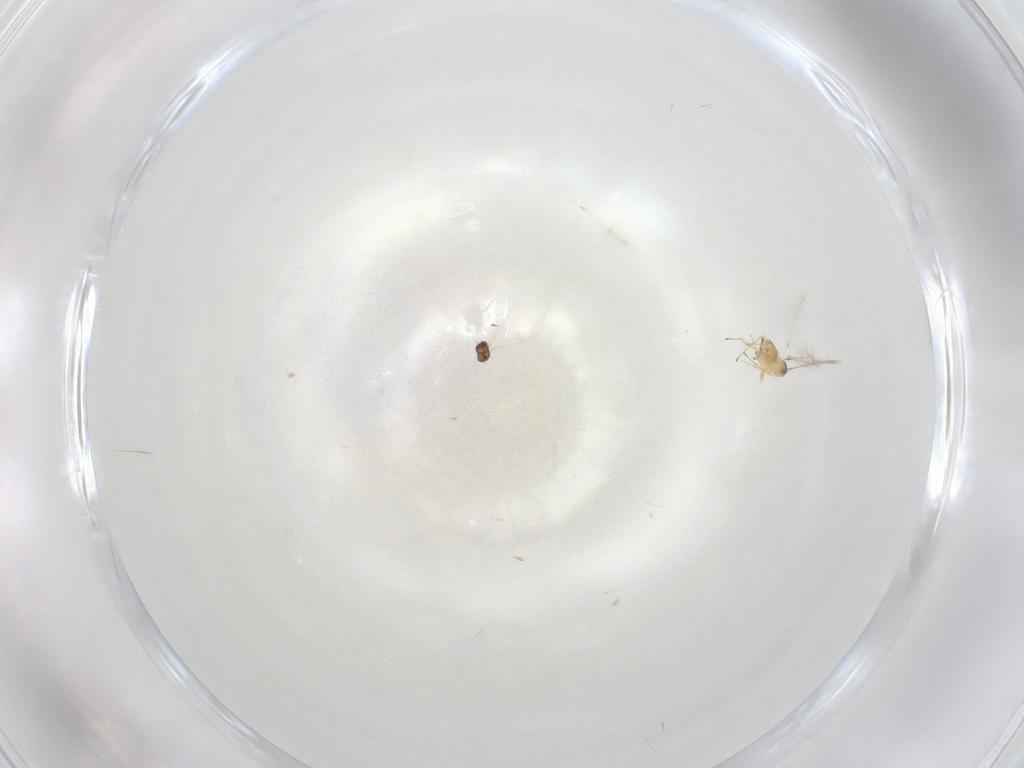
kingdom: Animalia
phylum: Arthropoda
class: Insecta
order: Hymenoptera
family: Mymaridae
